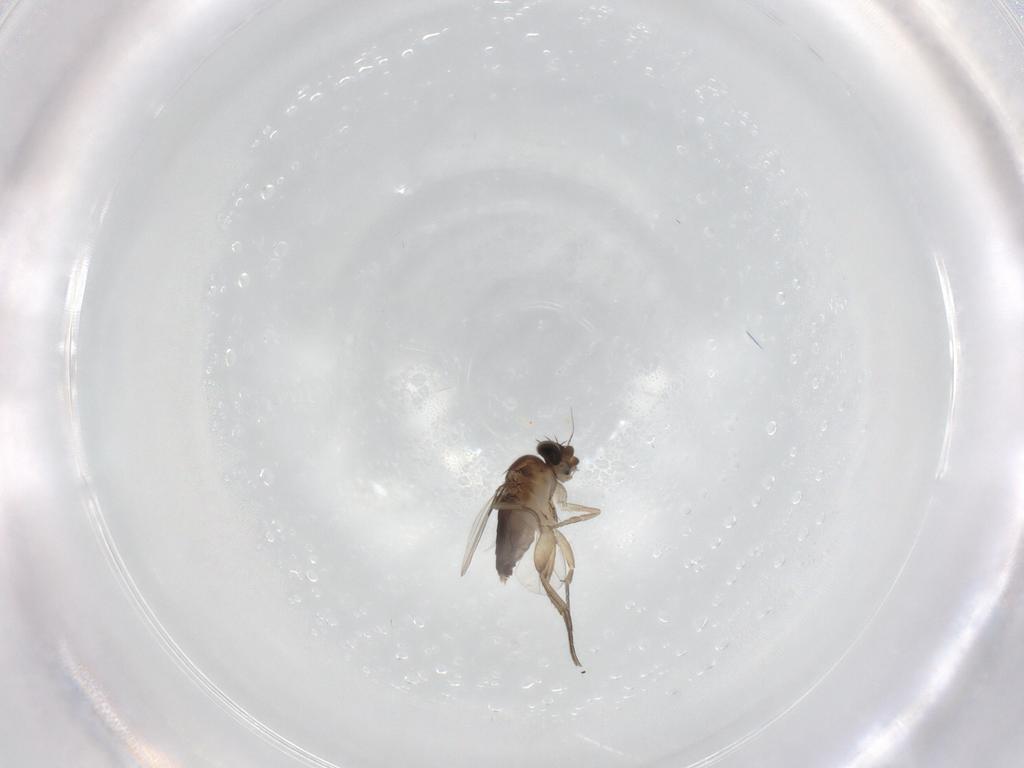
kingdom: Animalia
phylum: Arthropoda
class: Insecta
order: Diptera
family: Phoridae
